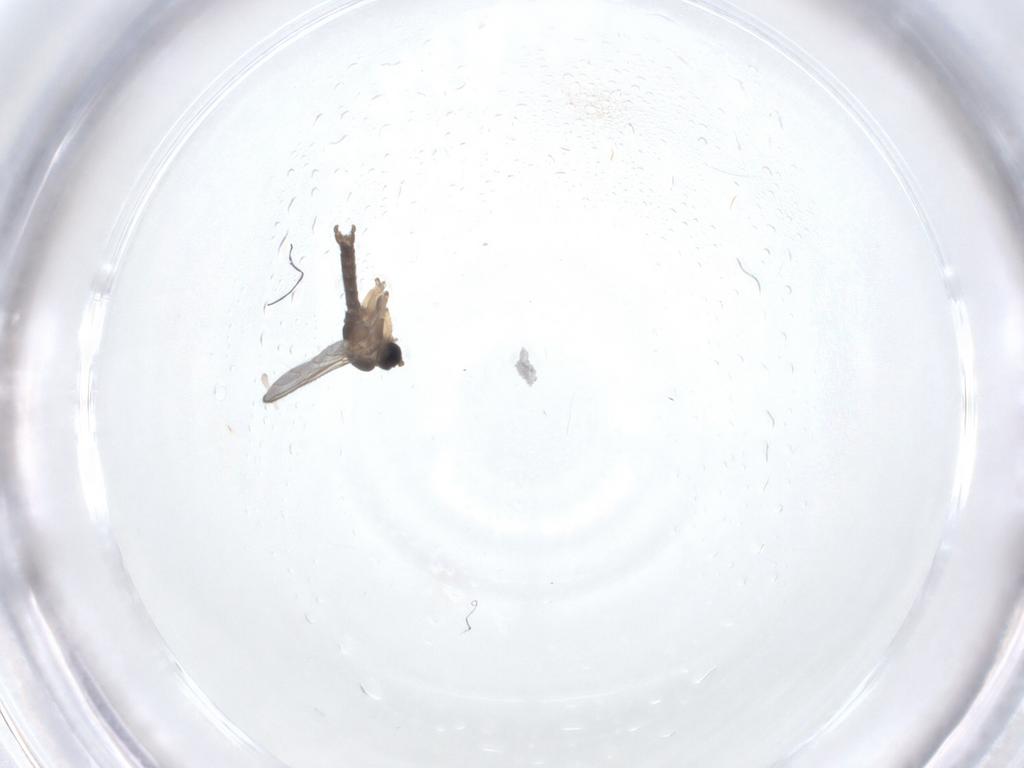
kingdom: Animalia
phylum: Arthropoda
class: Insecta
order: Diptera
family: Sciaridae
